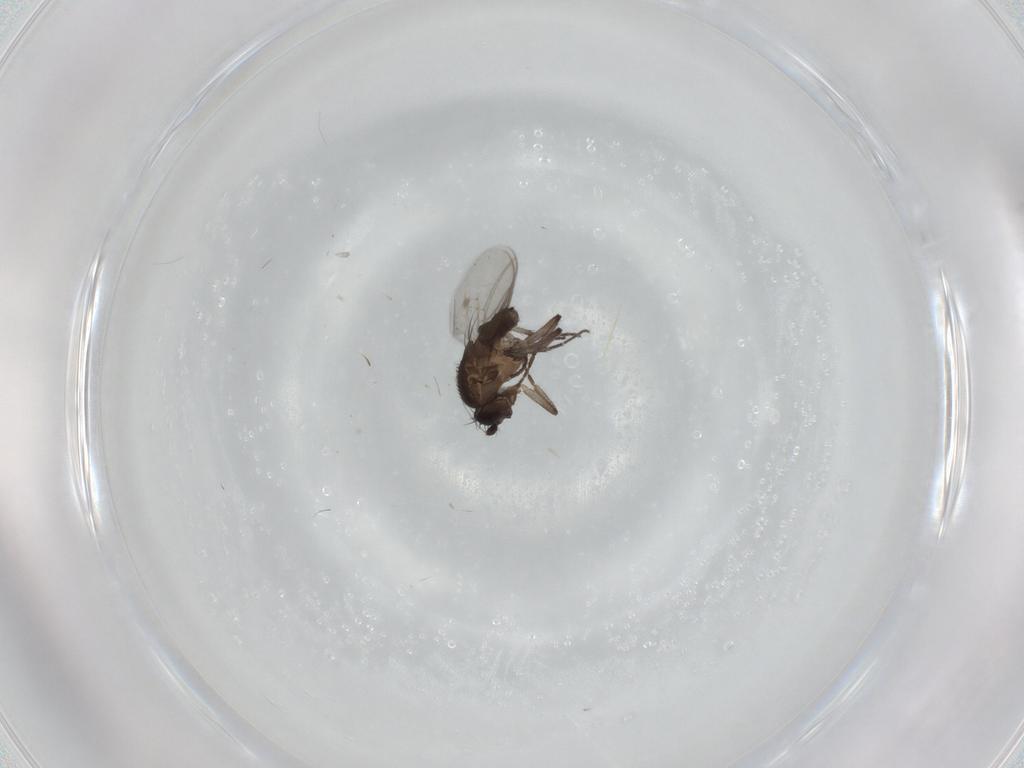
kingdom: Animalia
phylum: Arthropoda
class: Insecta
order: Diptera
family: Sphaeroceridae
